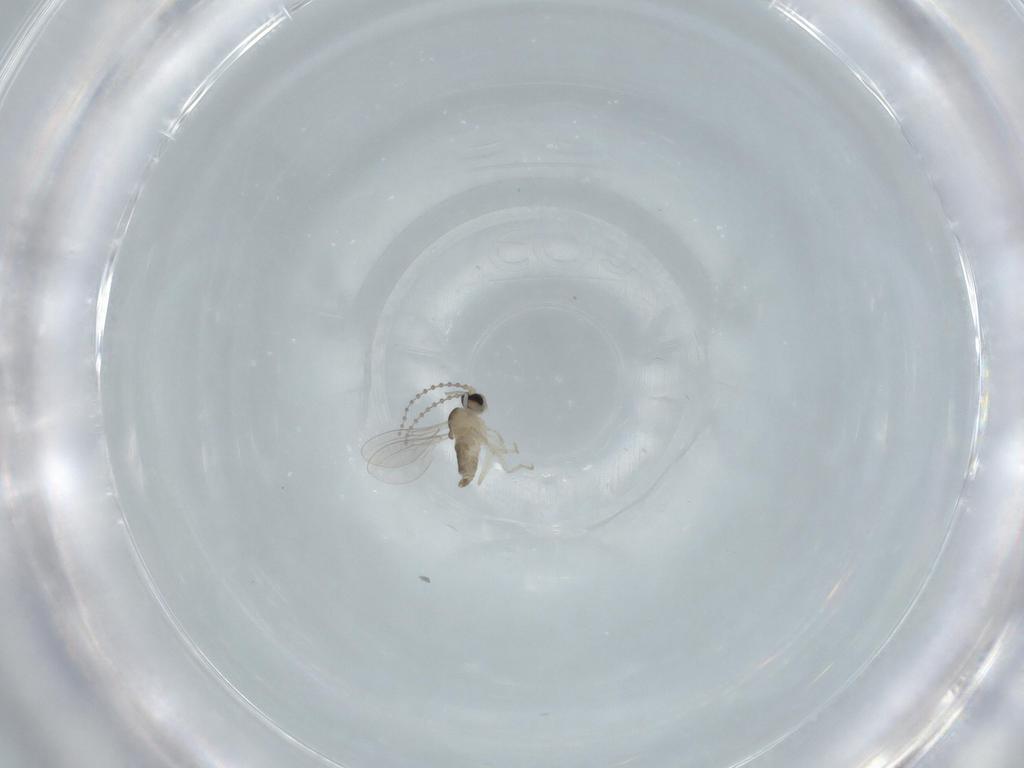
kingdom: Animalia
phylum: Arthropoda
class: Insecta
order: Diptera
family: Cecidomyiidae
